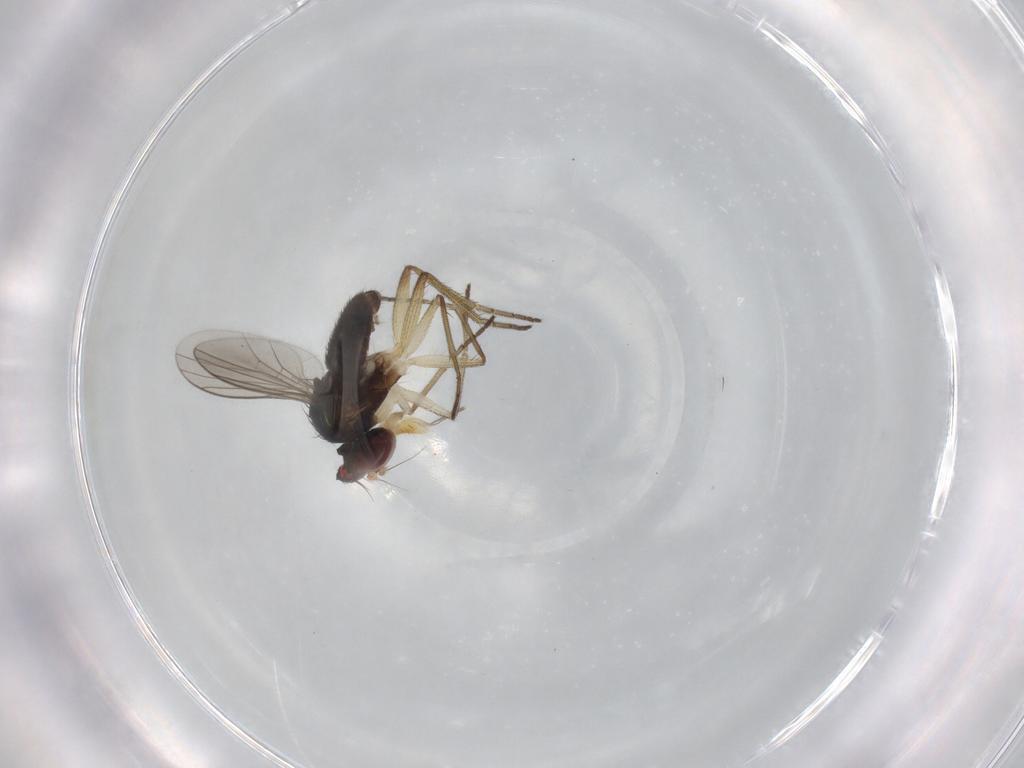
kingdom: Animalia
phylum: Arthropoda
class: Insecta
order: Diptera
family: Dolichopodidae
